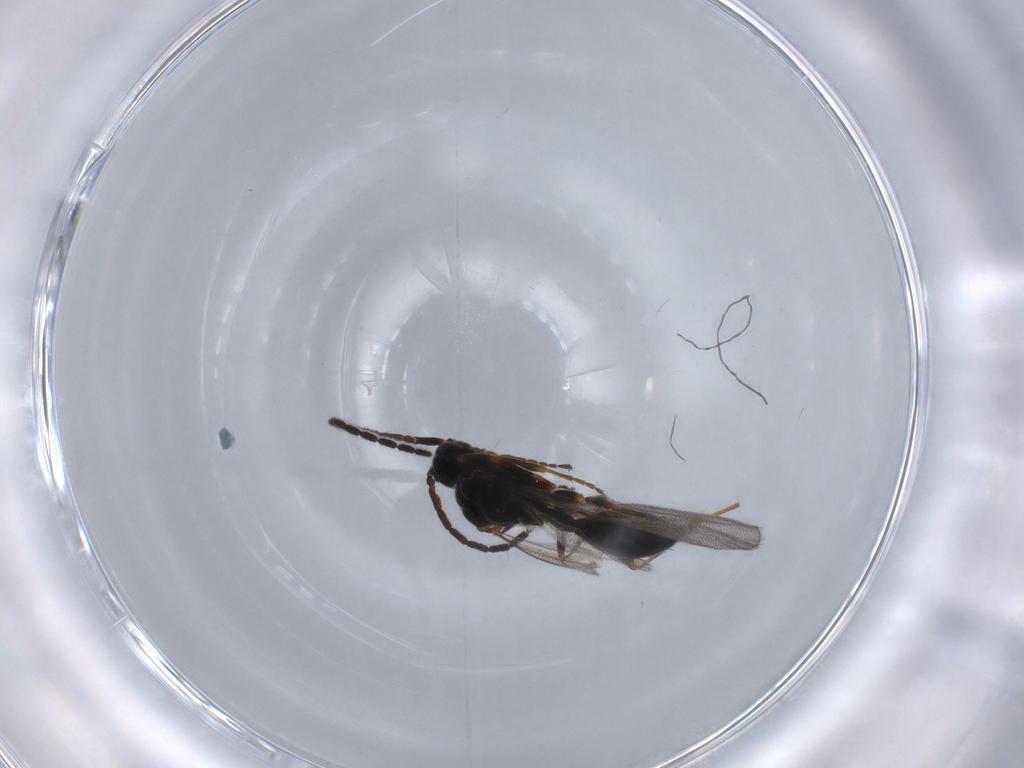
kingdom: Animalia
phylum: Arthropoda
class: Insecta
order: Hymenoptera
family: Figitidae
